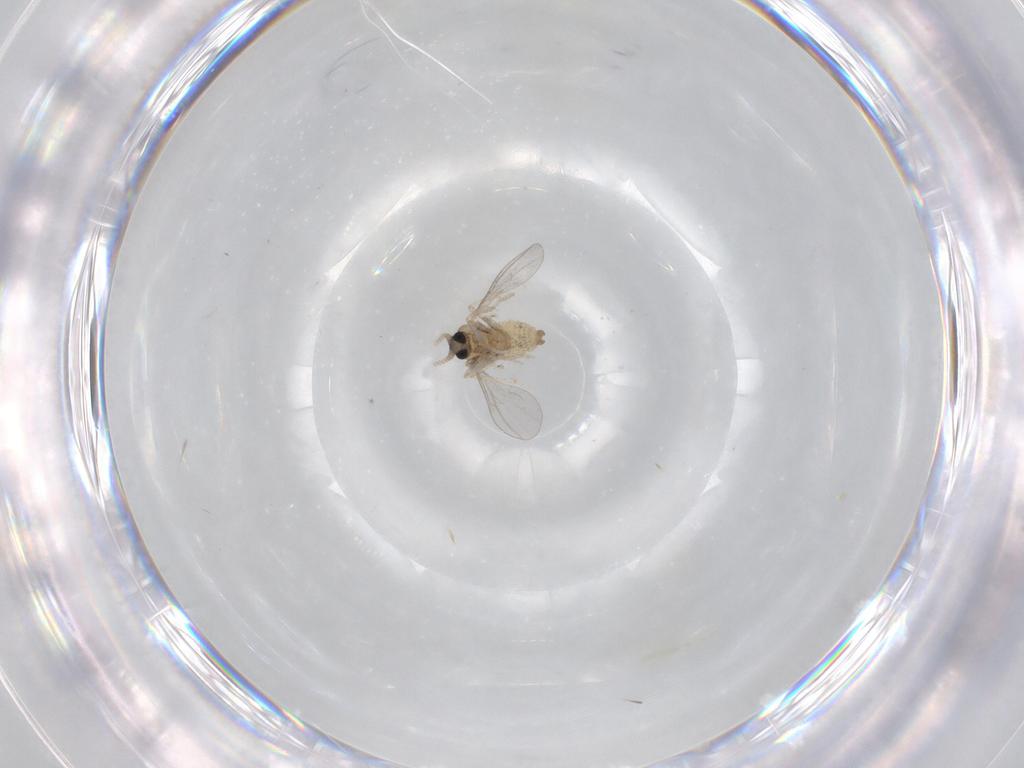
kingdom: Animalia
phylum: Arthropoda
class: Insecta
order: Diptera
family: Cecidomyiidae
